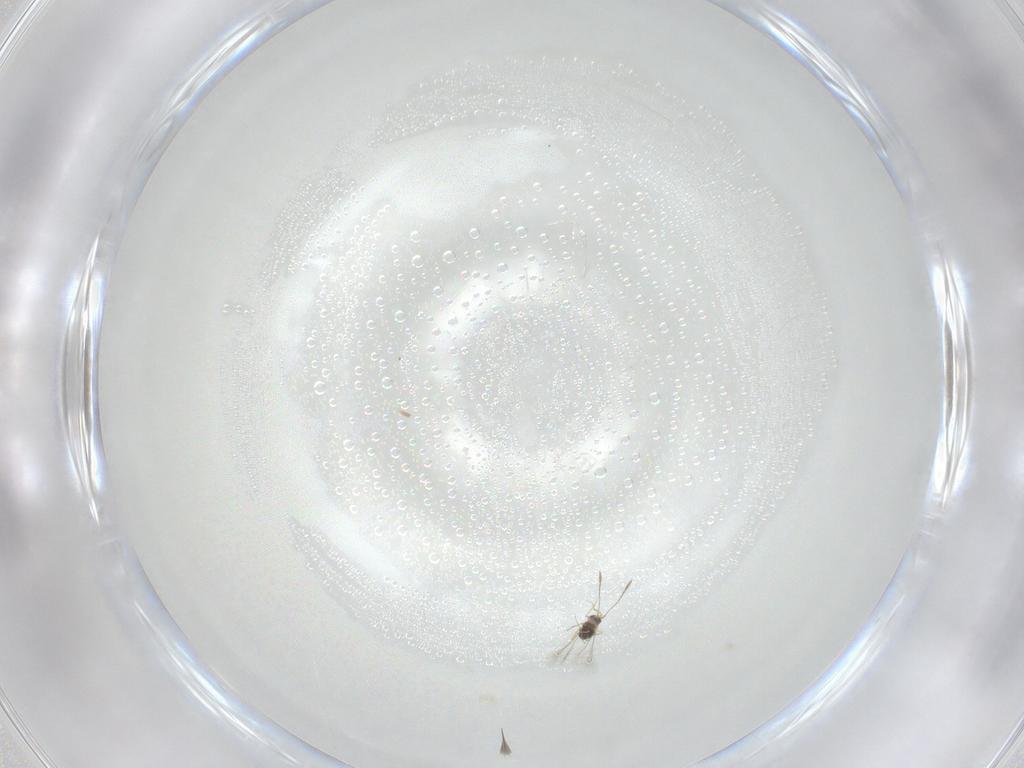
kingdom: Animalia
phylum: Arthropoda
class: Arachnida
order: Trombidiformes
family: Anystidae
